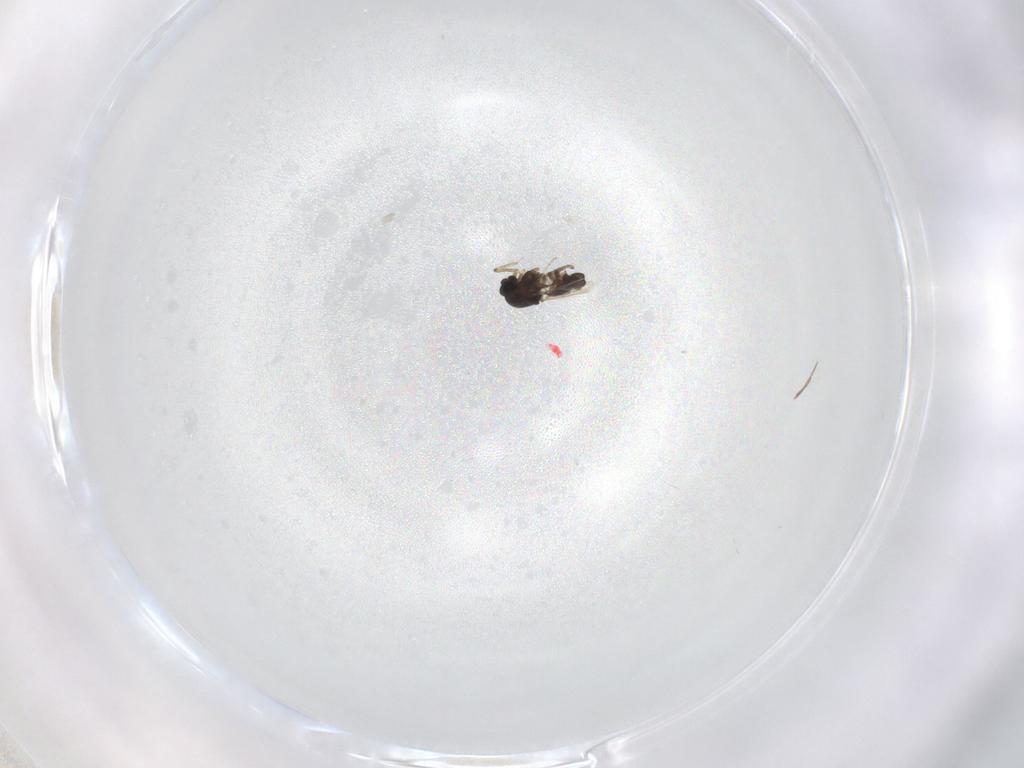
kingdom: Animalia
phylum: Arthropoda
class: Insecta
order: Diptera
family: Ceratopogonidae
